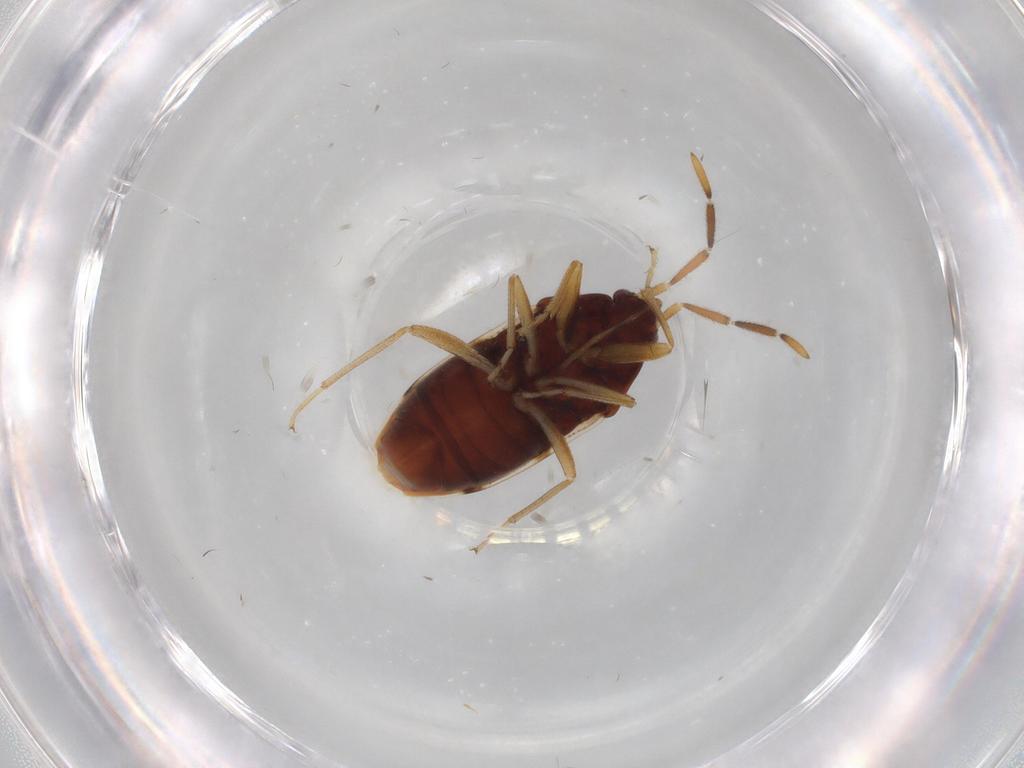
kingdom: Animalia
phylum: Arthropoda
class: Insecta
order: Hemiptera
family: Rhyparochromidae
